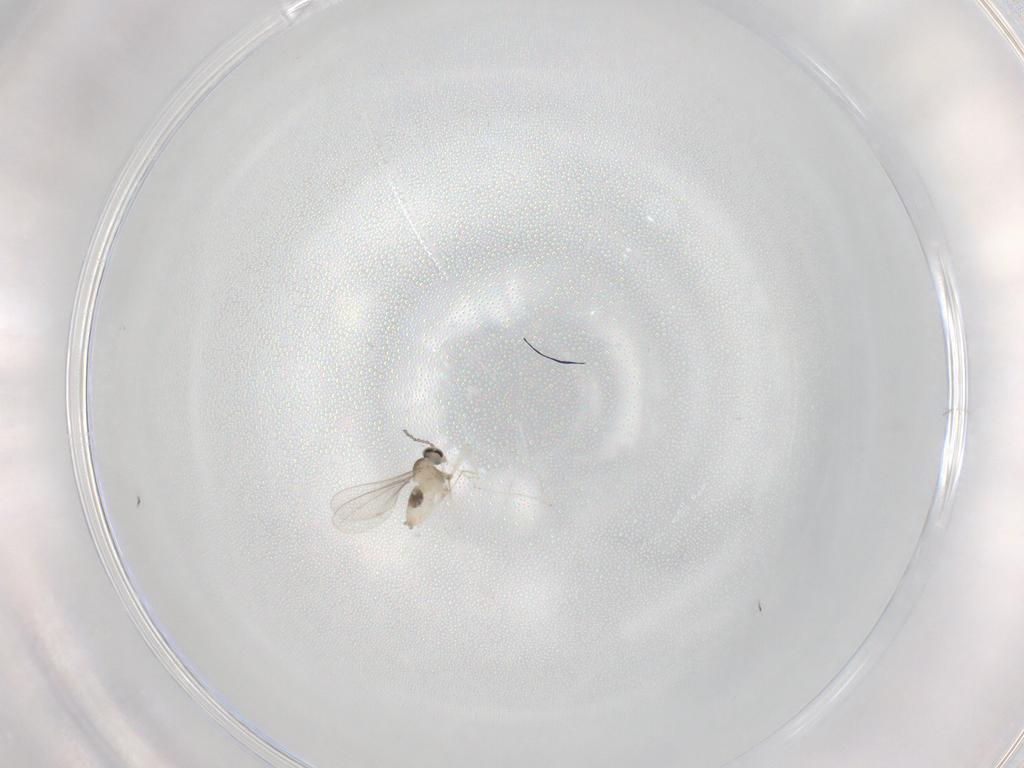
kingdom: Animalia
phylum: Arthropoda
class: Insecta
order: Diptera
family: Cecidomyiidae
